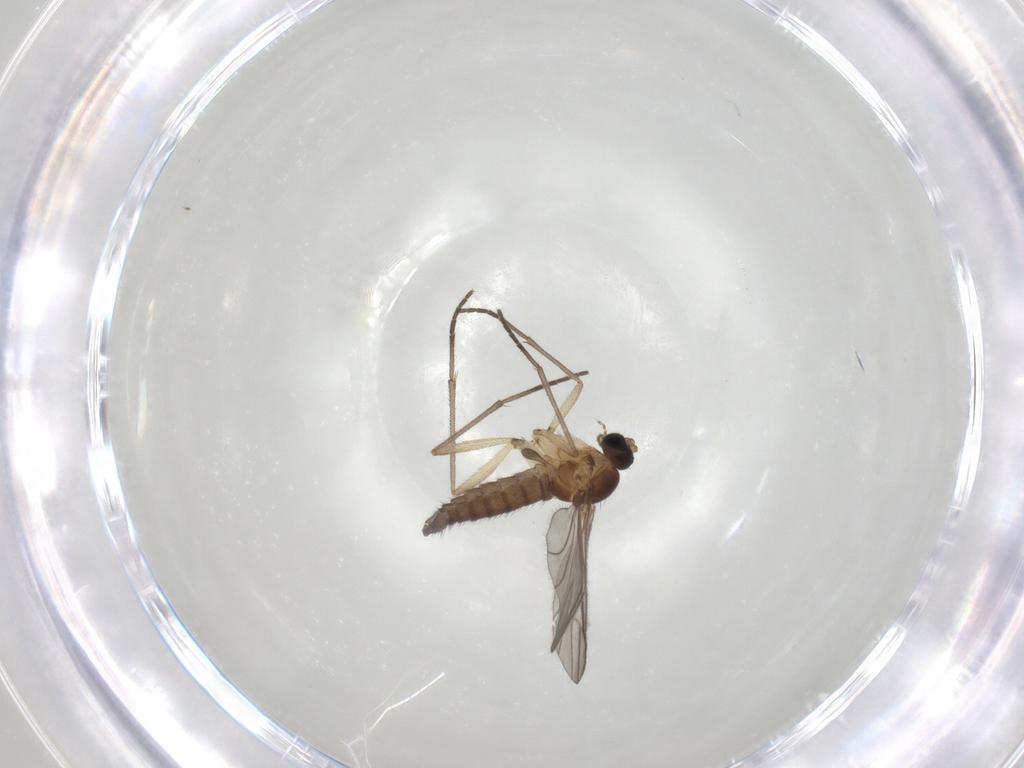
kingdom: Animalia
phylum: Arthropoda
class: Insecta
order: Diptera
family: Sciaridae
